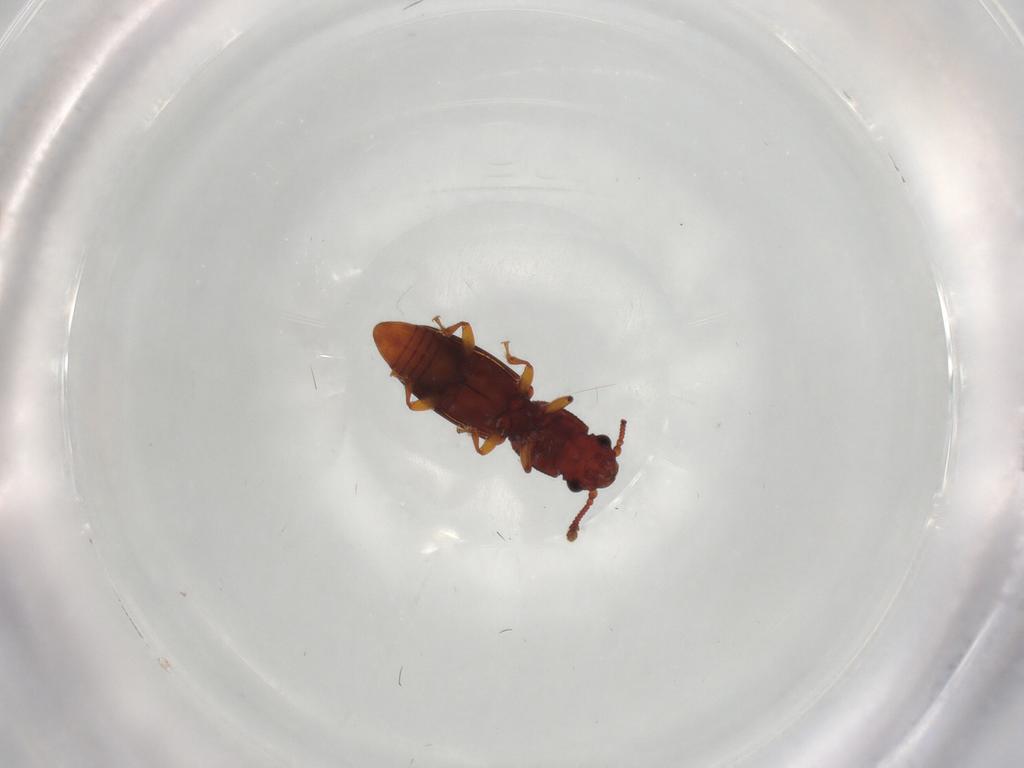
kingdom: Animalia
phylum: Arthropoda
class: Insecta
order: Coleoptera
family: Monotomidae
